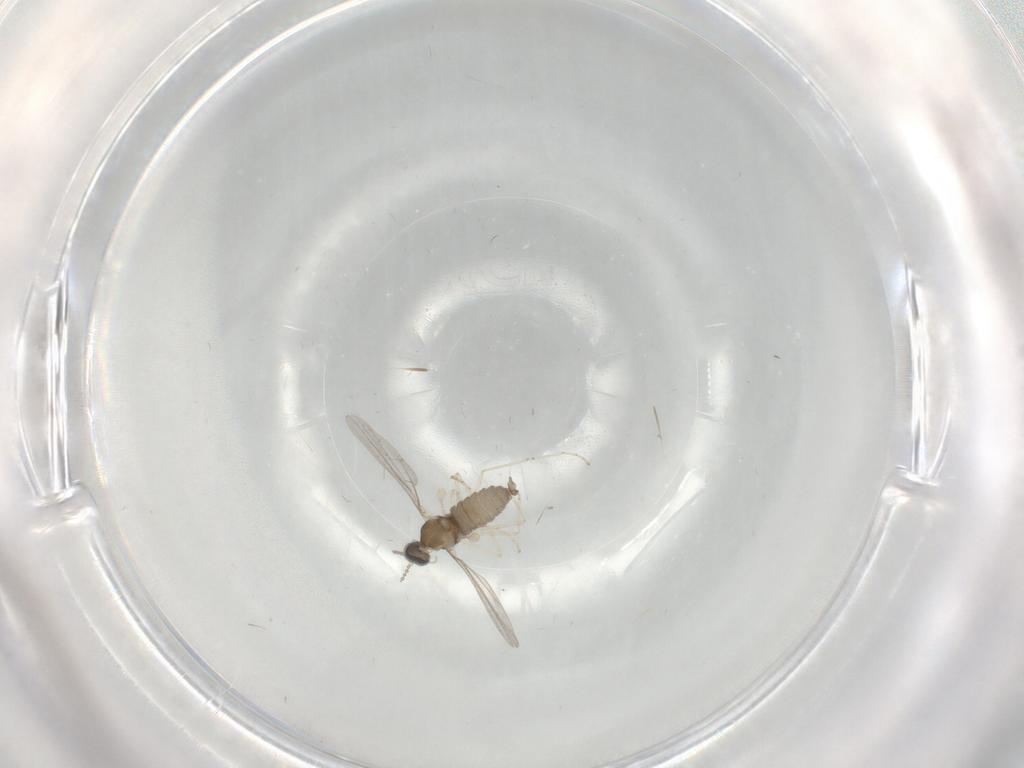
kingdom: Animalia
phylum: Arthropoda
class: Insecta
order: Diptera
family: Cecidomyiidae
